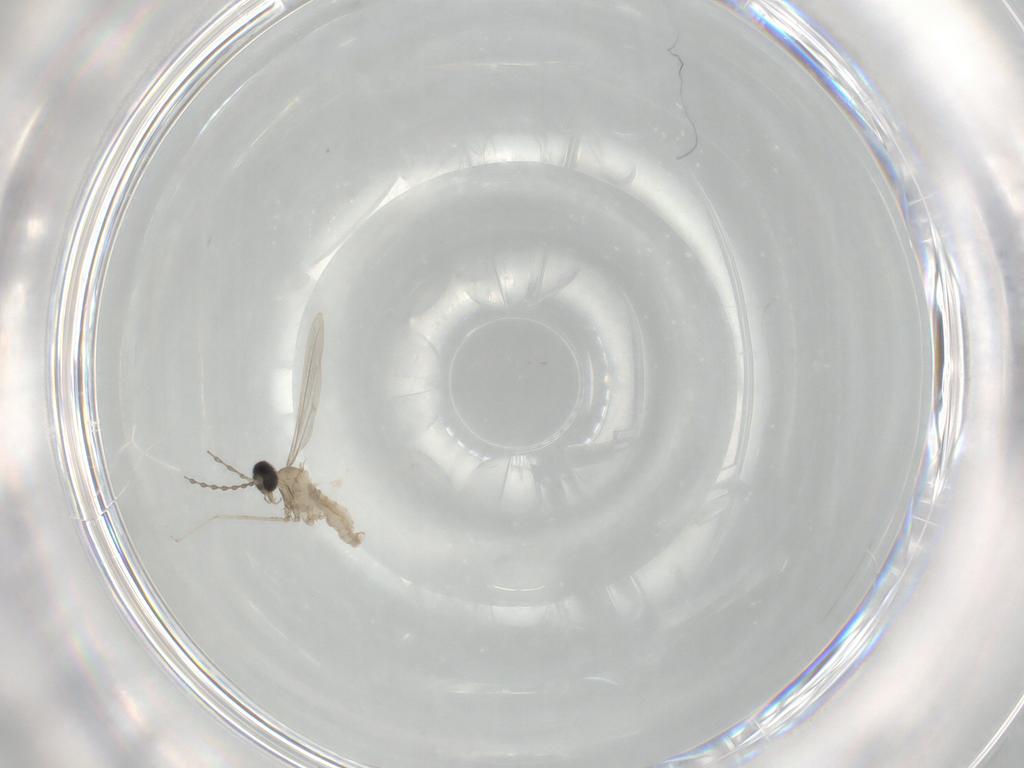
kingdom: Animalia
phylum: Arthropoda
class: Insecta
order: Diptera
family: Cecidomyiidae
